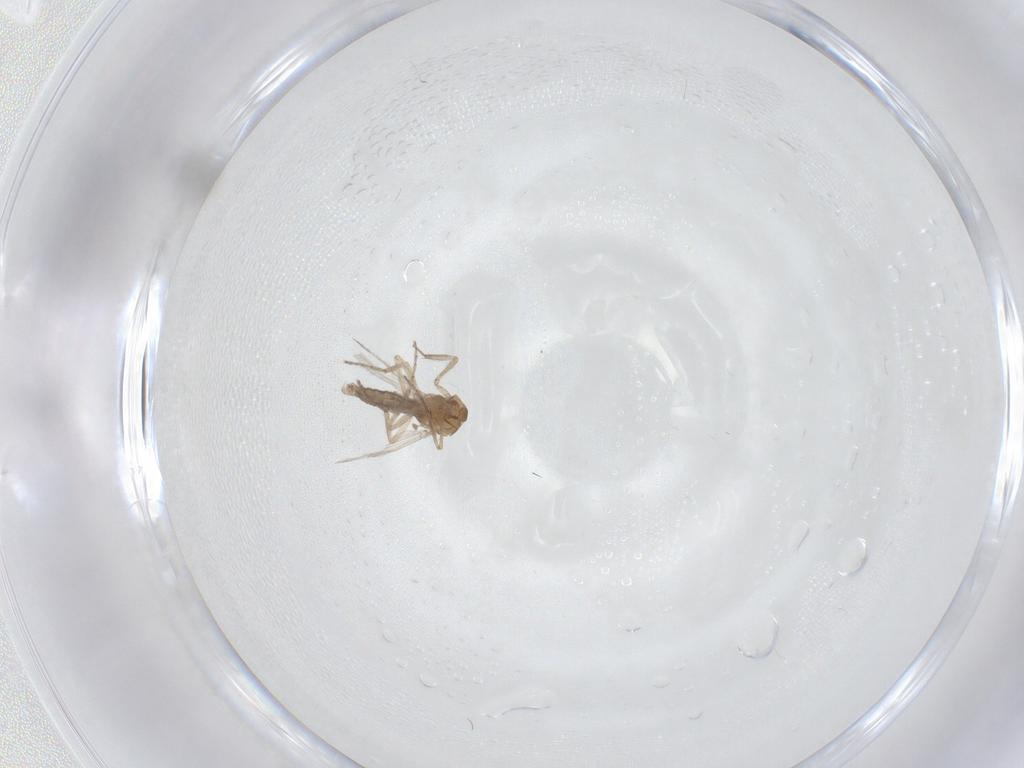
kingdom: Animalia
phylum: Arthropoda
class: Insecta
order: Diptera
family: Ceratopogonidae
